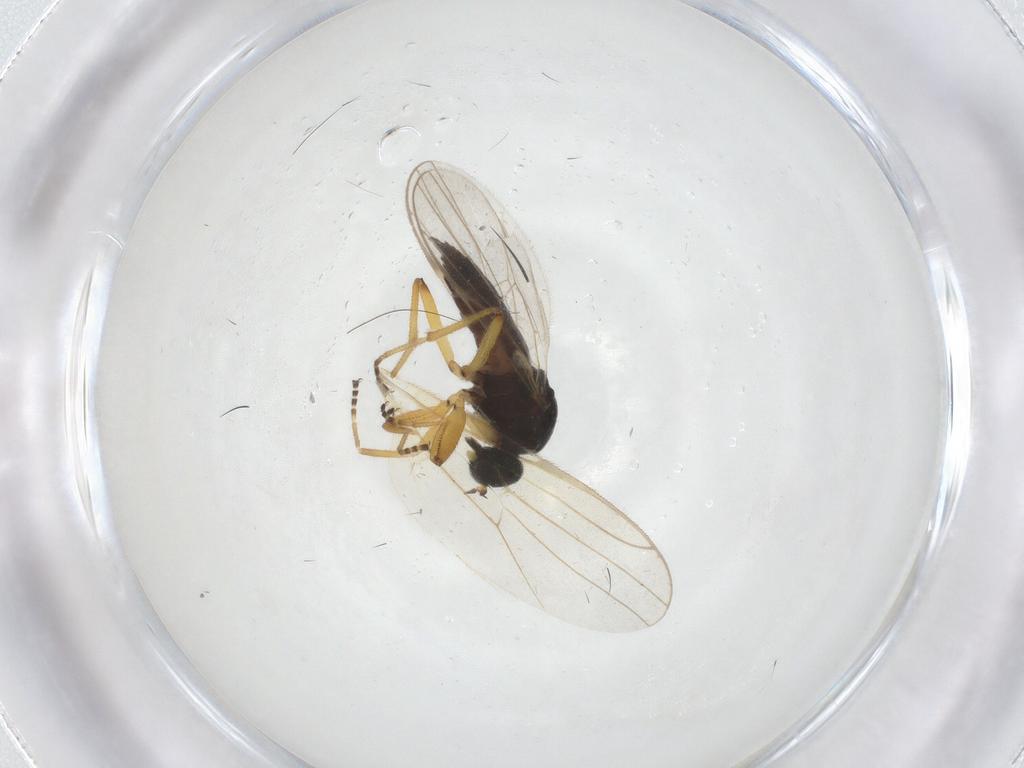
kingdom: Animalia
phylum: Arthropoda
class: Insecta
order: Diptera
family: Hybotidae
